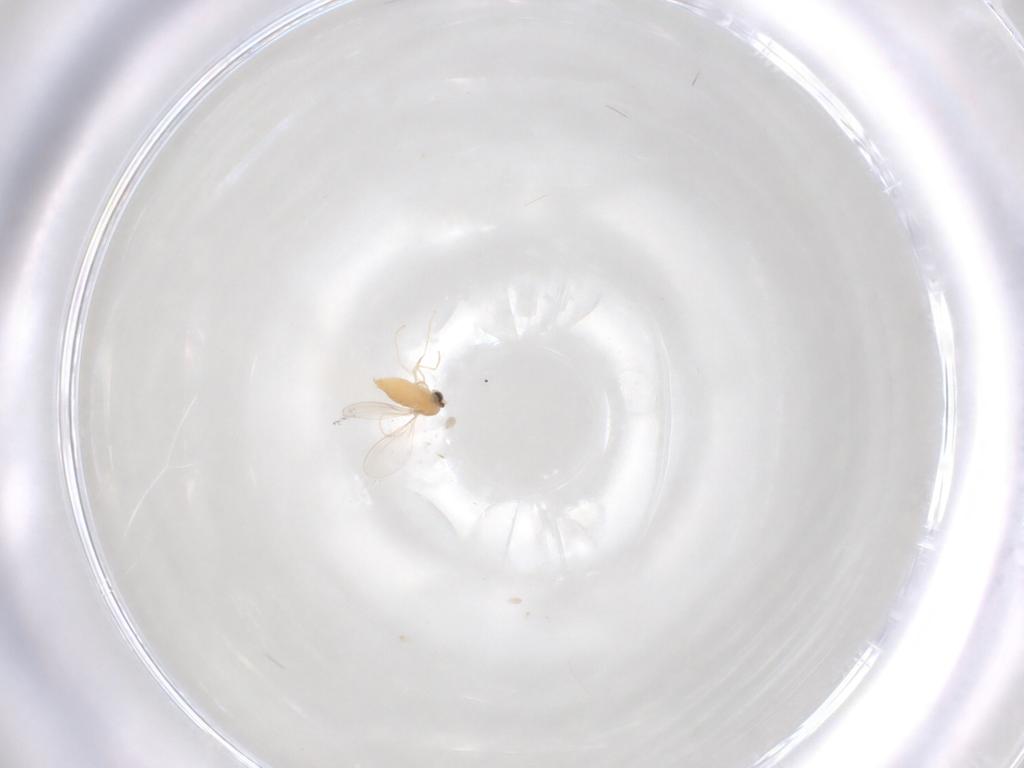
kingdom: Animalia
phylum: Arthropoda
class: Insecta
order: Diptera
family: Cecidomyiidae
